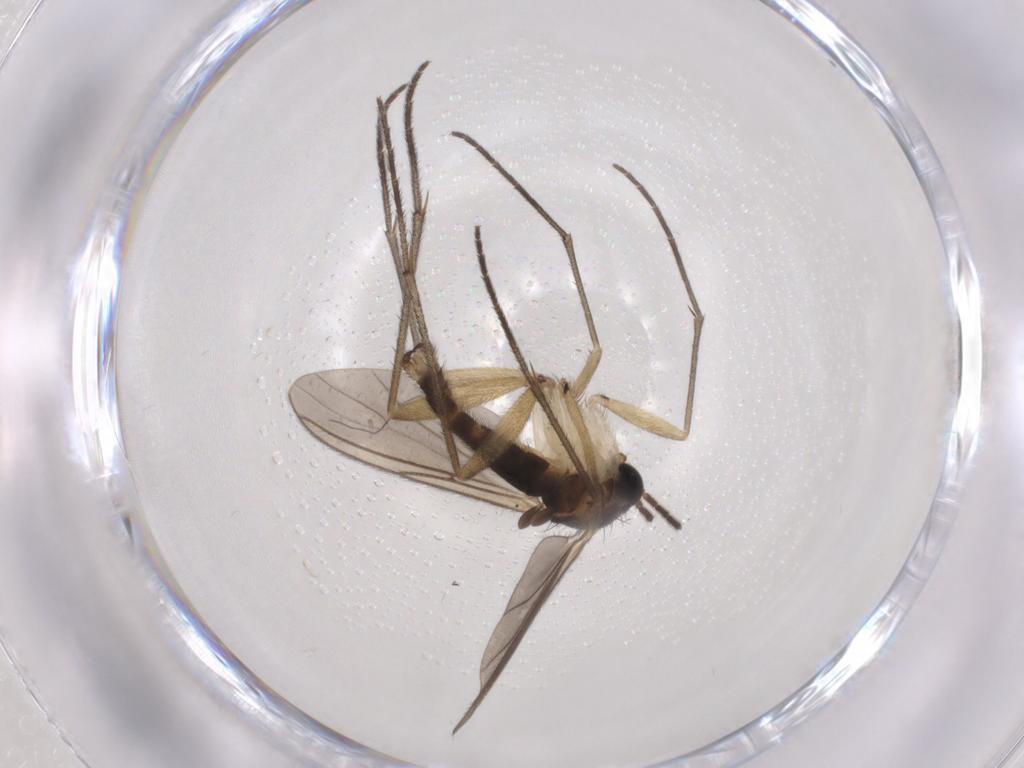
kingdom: Animalia
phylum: Arthropoda
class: Insecta
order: Diptera
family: Sciaridae
